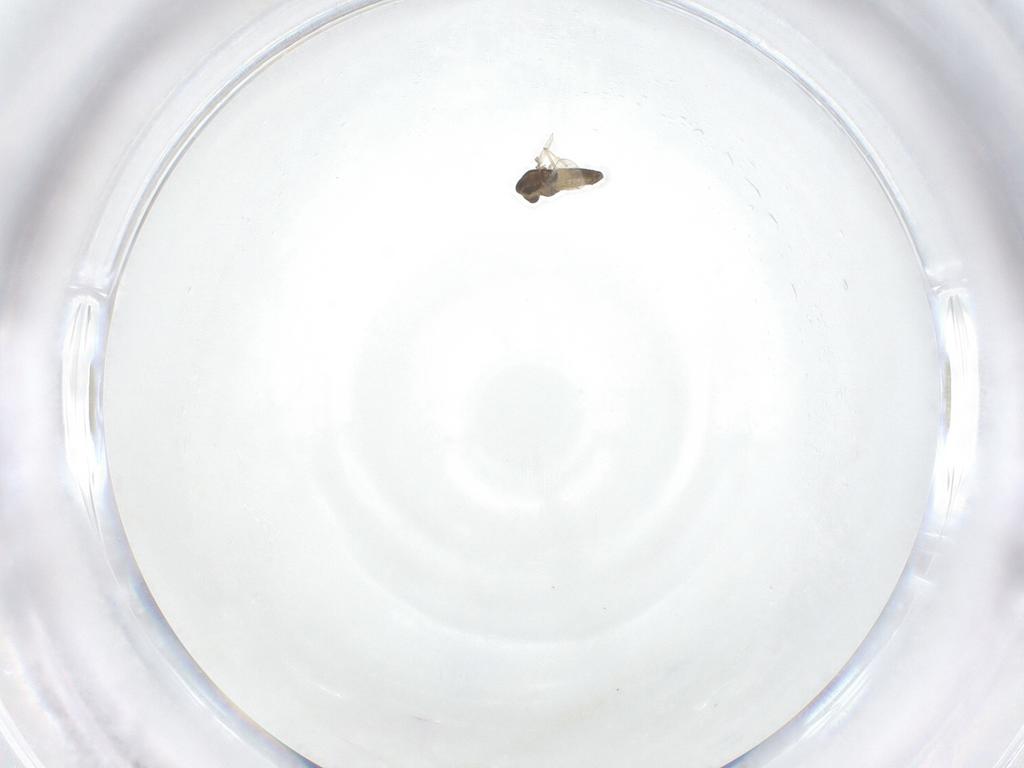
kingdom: Animalia
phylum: Arthropoda
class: Insecta
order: Diptera
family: Chironomidae
